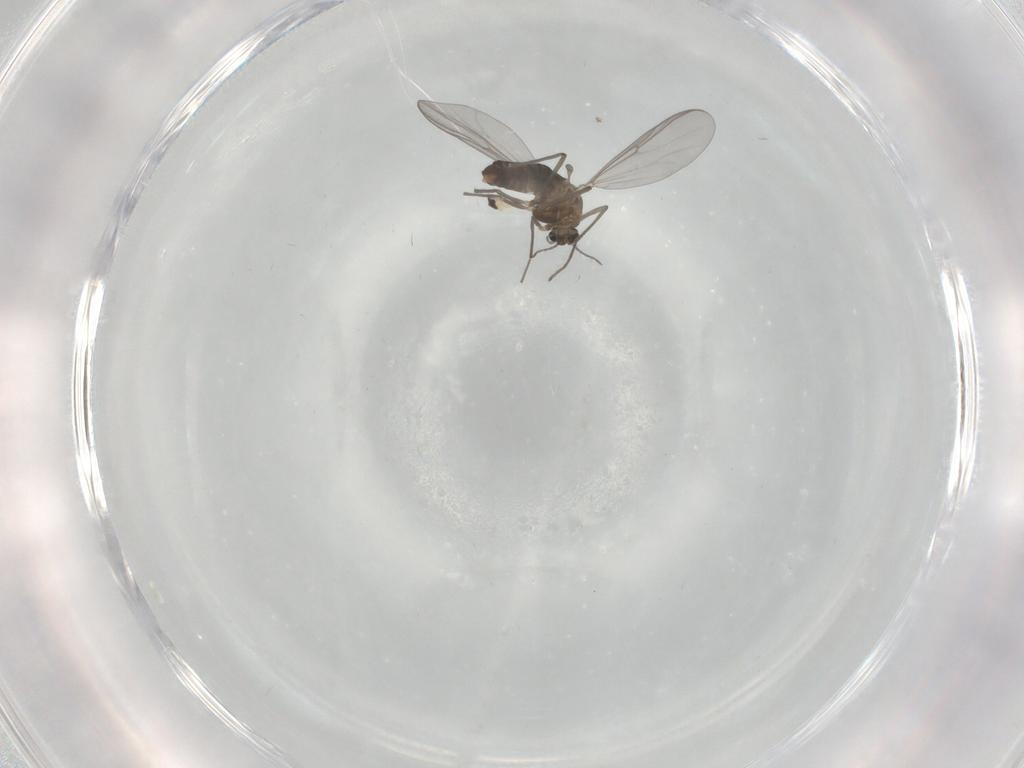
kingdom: Animalia
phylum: Arthropoda
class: Insecta
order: Diptera
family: Chironomidae
